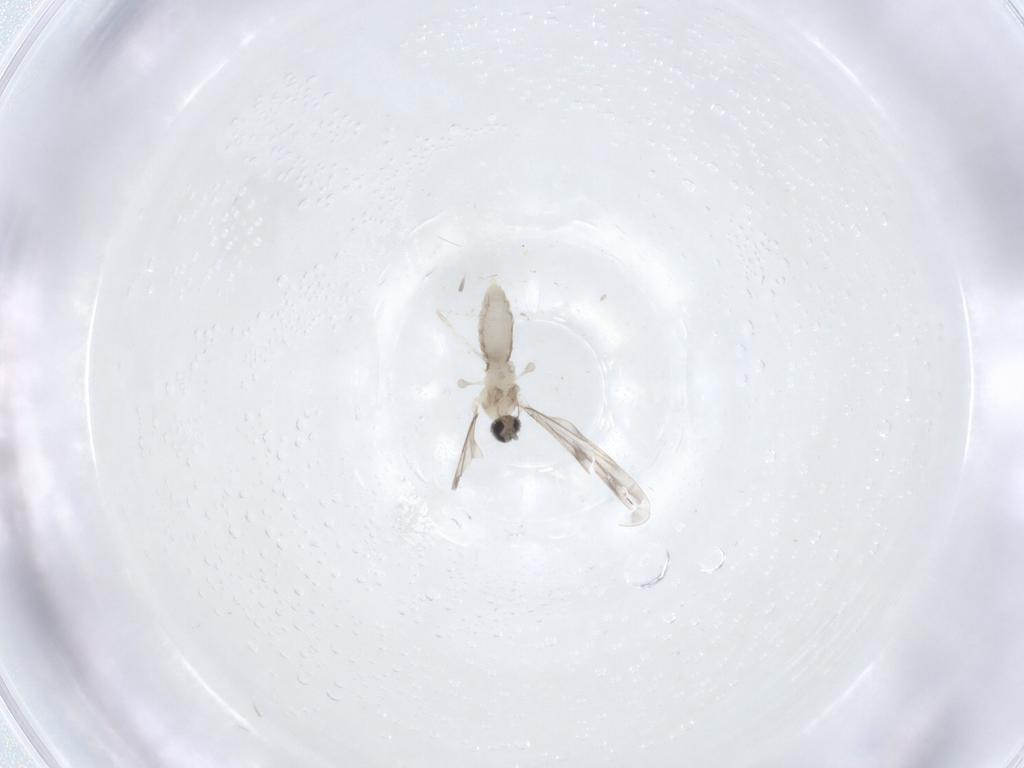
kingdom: Animalia
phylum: Arthropoda
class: Insecta
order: Diptera
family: Cecidomyiidae
